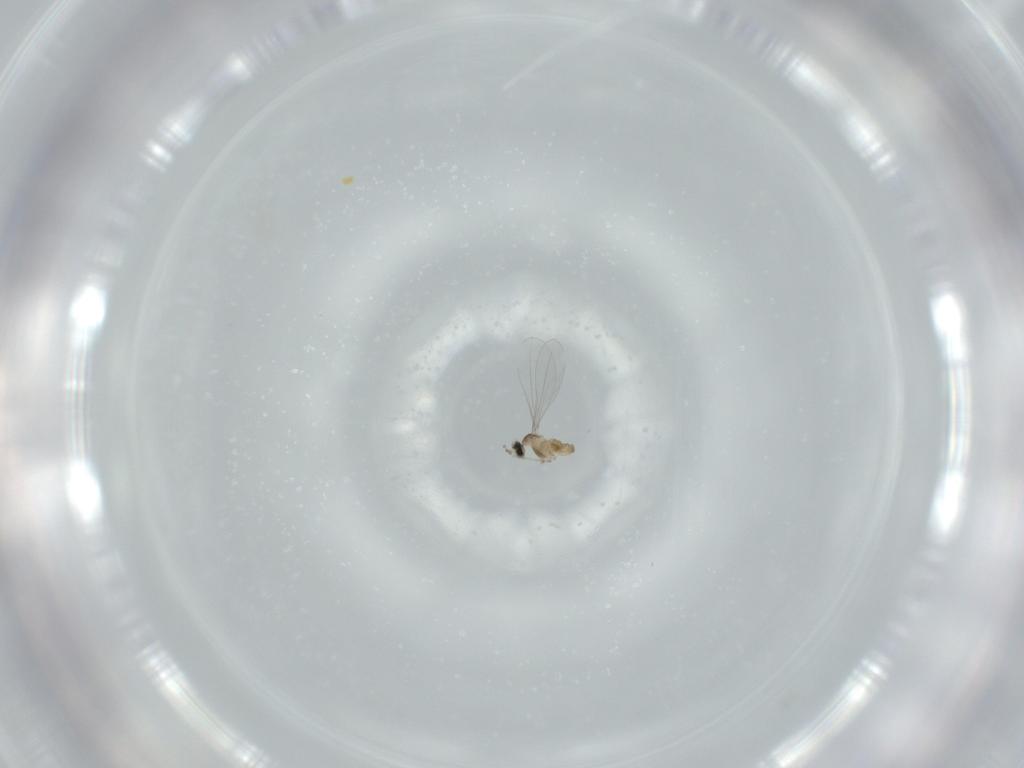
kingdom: Animalia
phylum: Arthropoda
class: Insecta
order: Diptera
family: Cecidomyiidae
